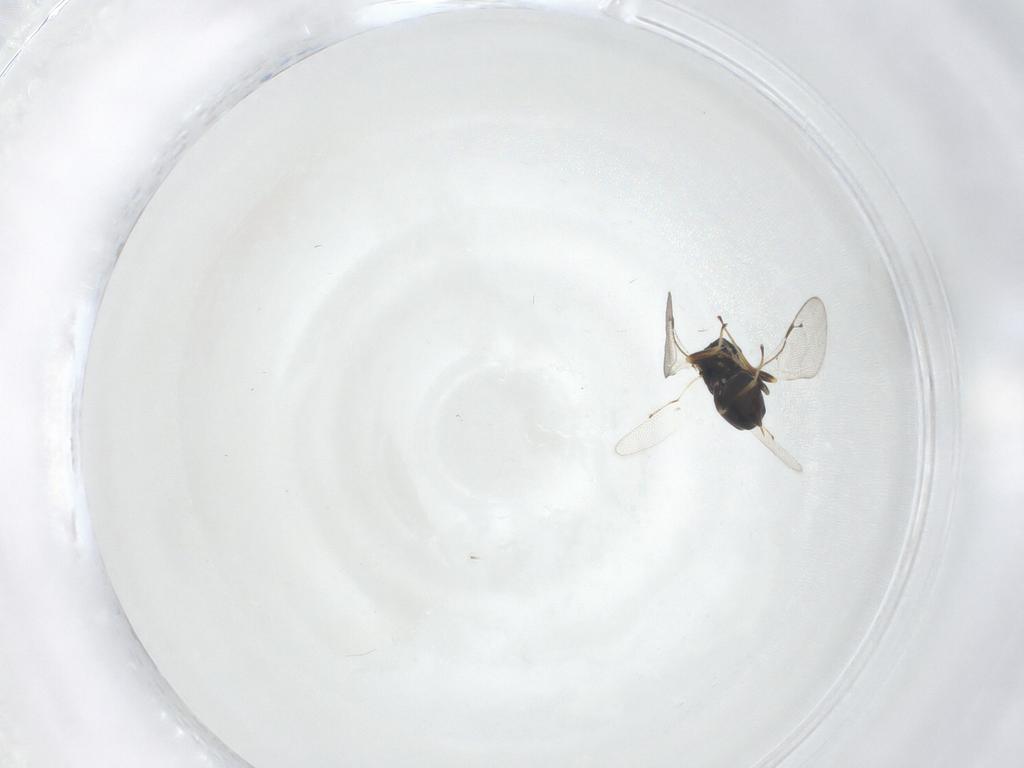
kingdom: Animalia
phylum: Arthropoda
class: Insecta
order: Hymenoptera
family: Pteromalidae
